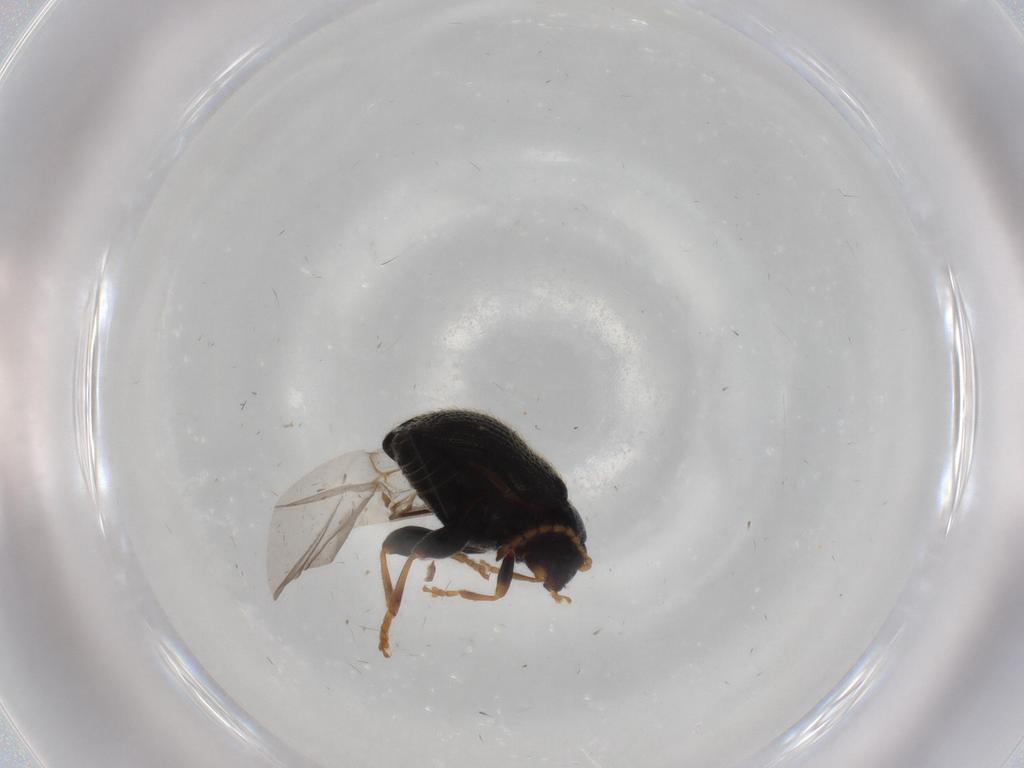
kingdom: Animalia
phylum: Arthropoda
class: Insecta
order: Coleoptera
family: Chrysomelidae
